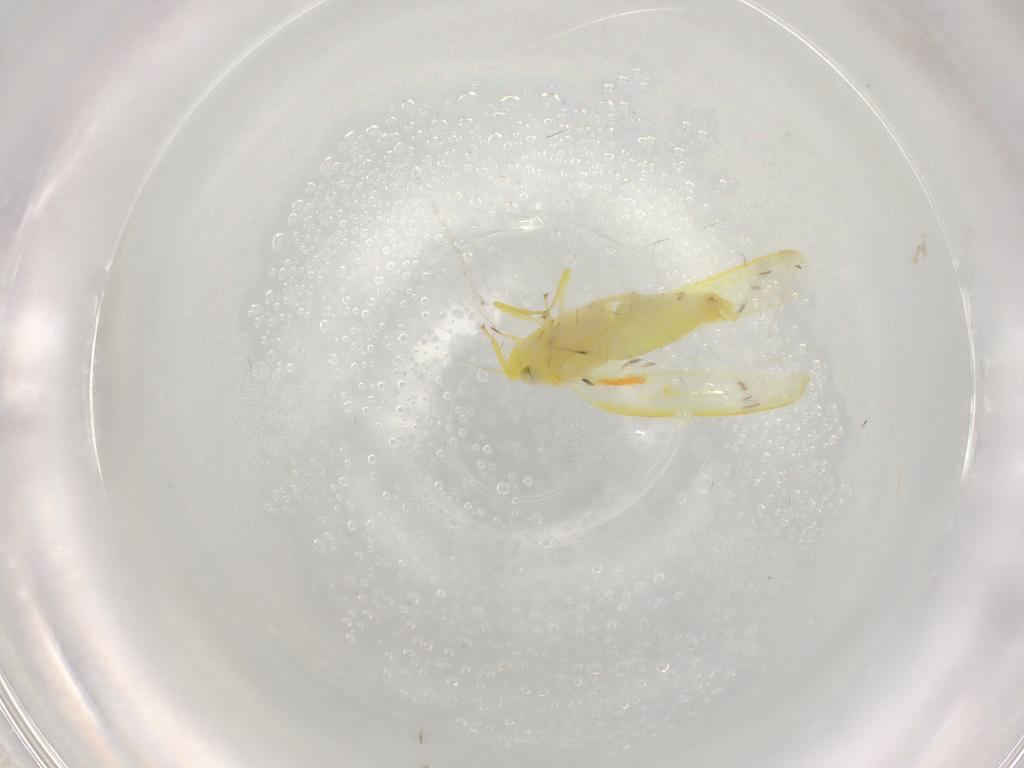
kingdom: Animalia
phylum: Arthropoda
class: Insecta
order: Hemiptera
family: Cicadellidae
